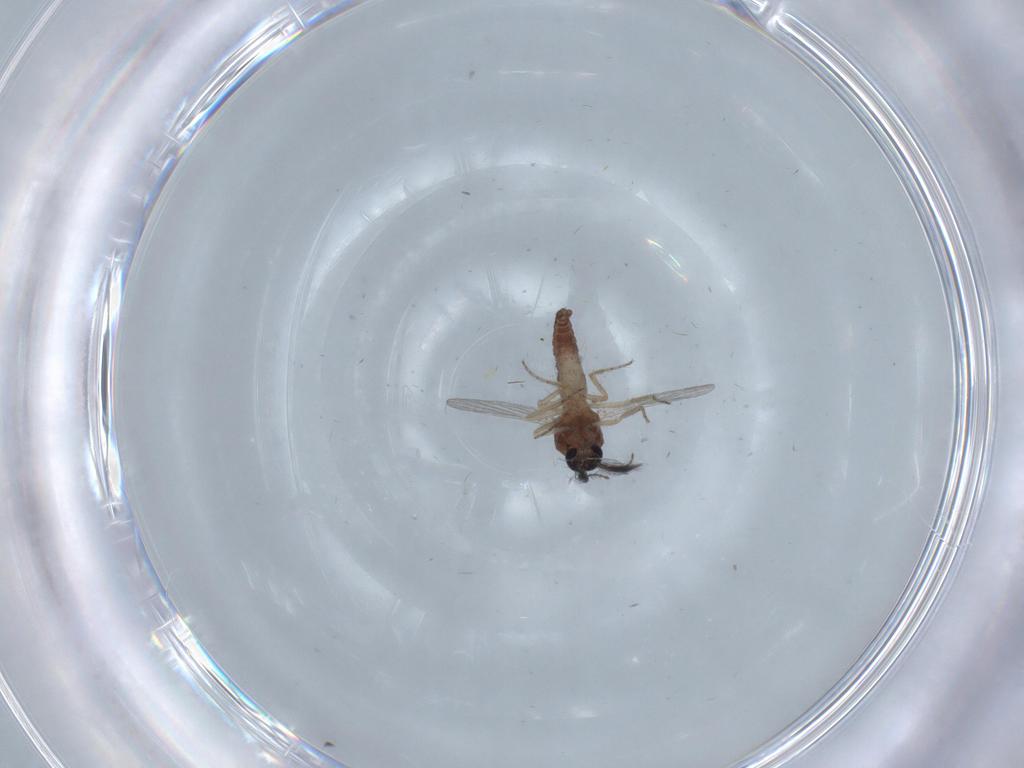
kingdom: Animalia
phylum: Arthropoda
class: Insecta
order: Diptera
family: Ceratopogonidae
